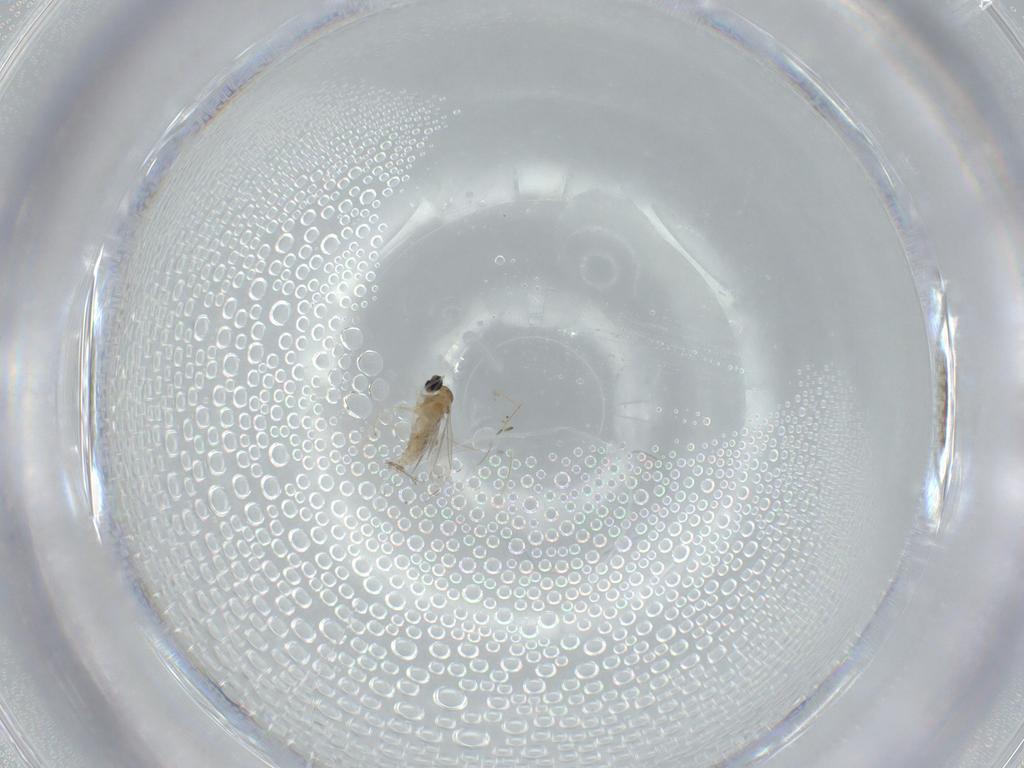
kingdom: Animalia
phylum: Arthropoda
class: Insecta
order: Diptera
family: Cecidomyiidae
